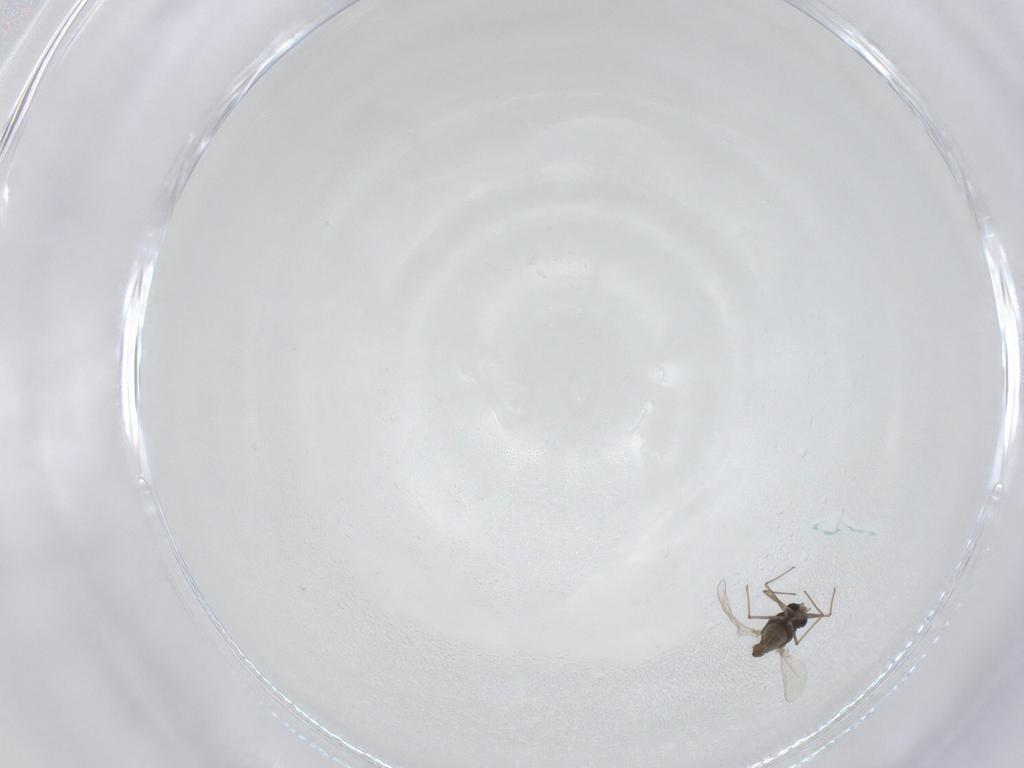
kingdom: Animalia
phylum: Arthropoda
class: Insecta
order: Diptera
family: Chironomidae
